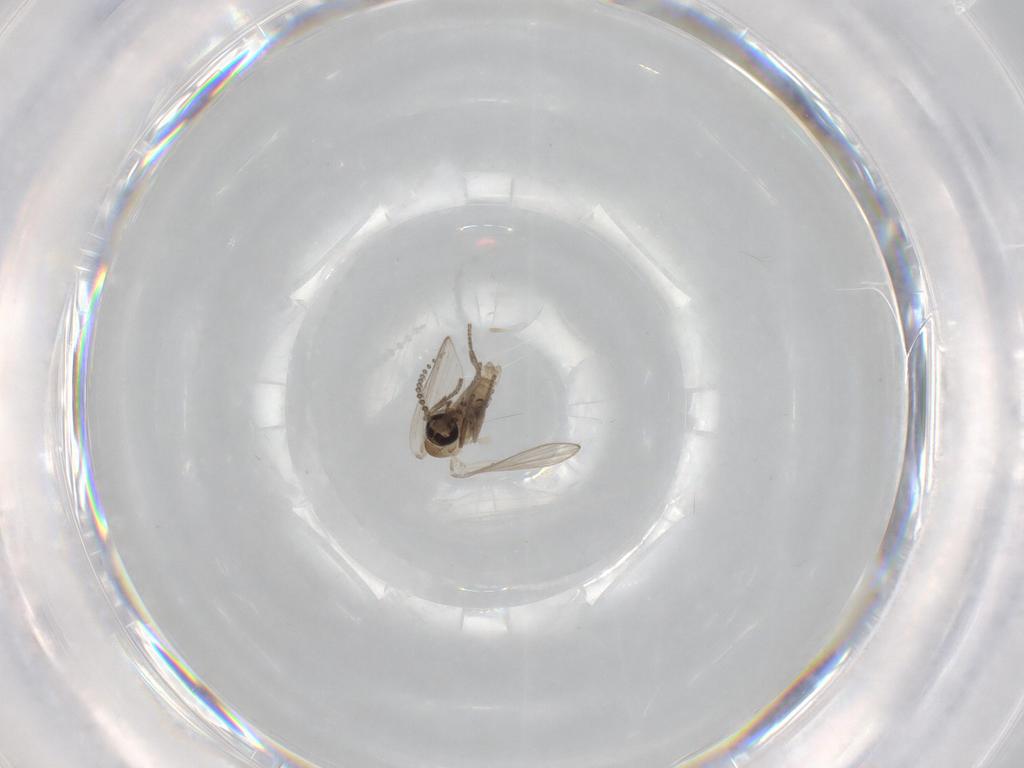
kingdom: Animalia
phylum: Arthropoda
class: Insecta
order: Diptera
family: Psychodidae
